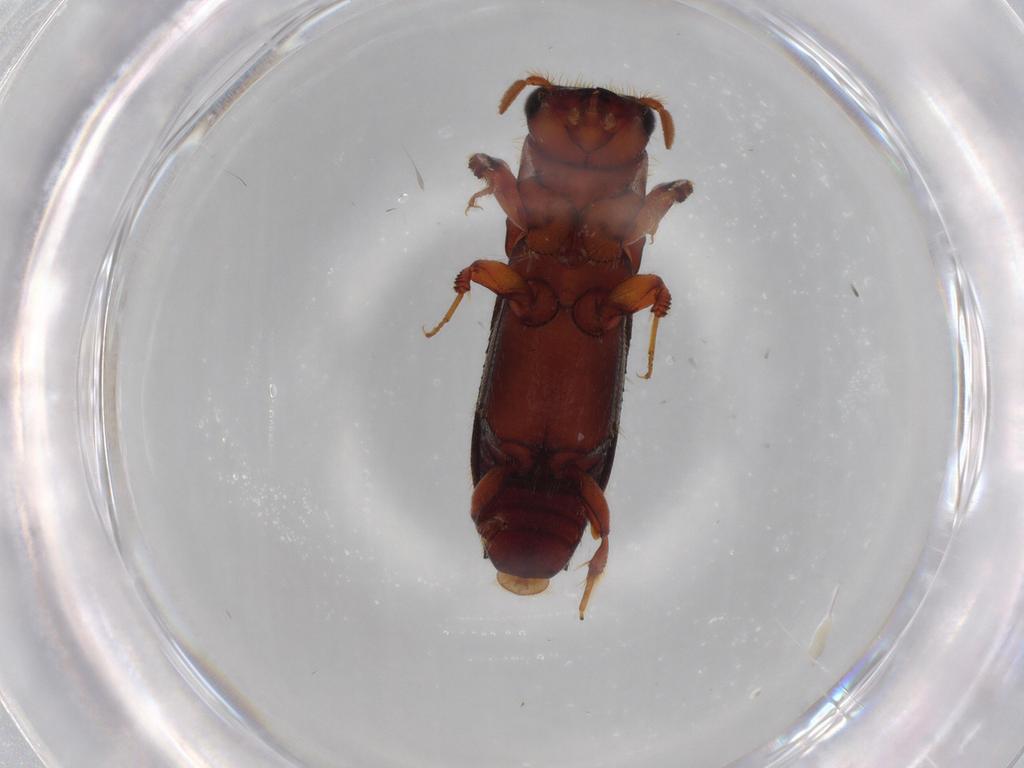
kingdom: Animalia
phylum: Arthropoda
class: Insecta
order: Coleoptera
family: Curculionidae
